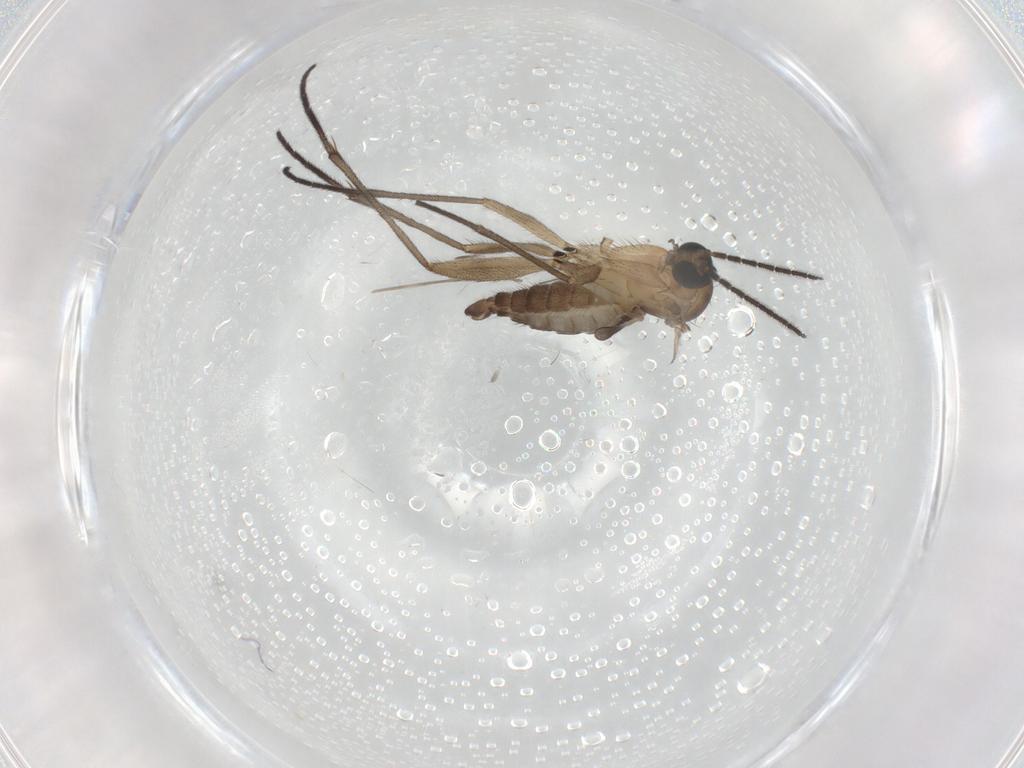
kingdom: Animalia
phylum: Arthropoda
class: Insecta
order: Diptera
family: Cecidomyiidae
